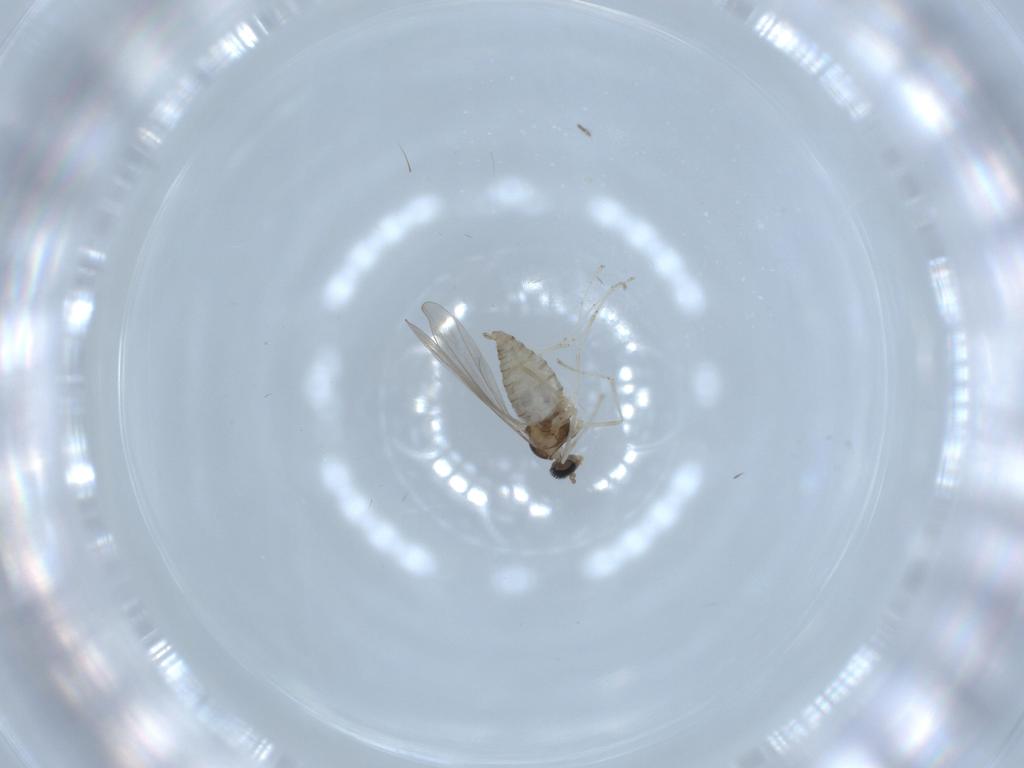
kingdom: Animalia
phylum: Arthropoda
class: Insecta
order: Diptera
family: Cecidomyiidae
